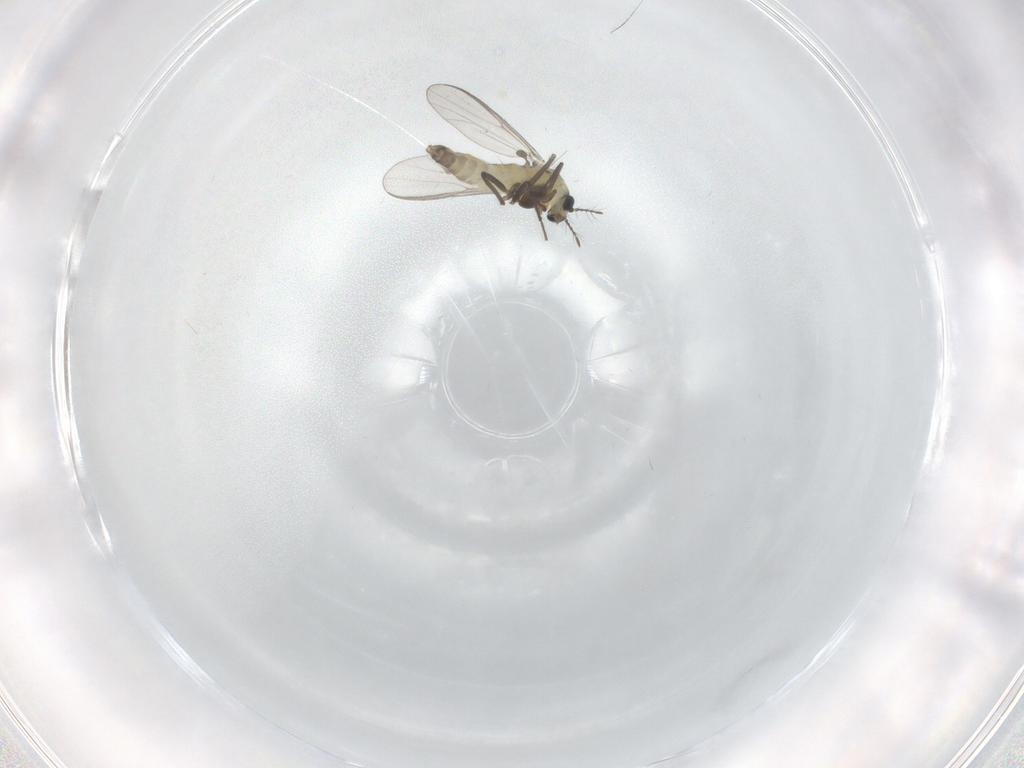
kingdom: Animalia
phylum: Arthropoda
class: Insecta
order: Diptera
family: Chironomidae
